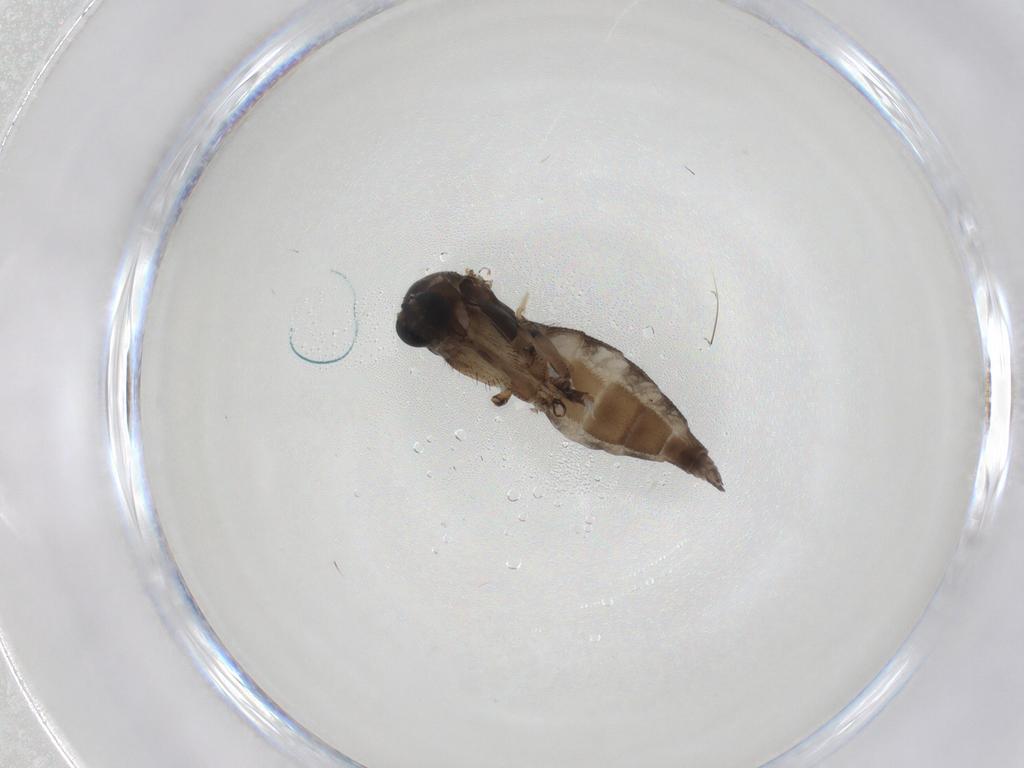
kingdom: Animalia
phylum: Arthropoda
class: Insecta
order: Diptera
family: Sciaridae
